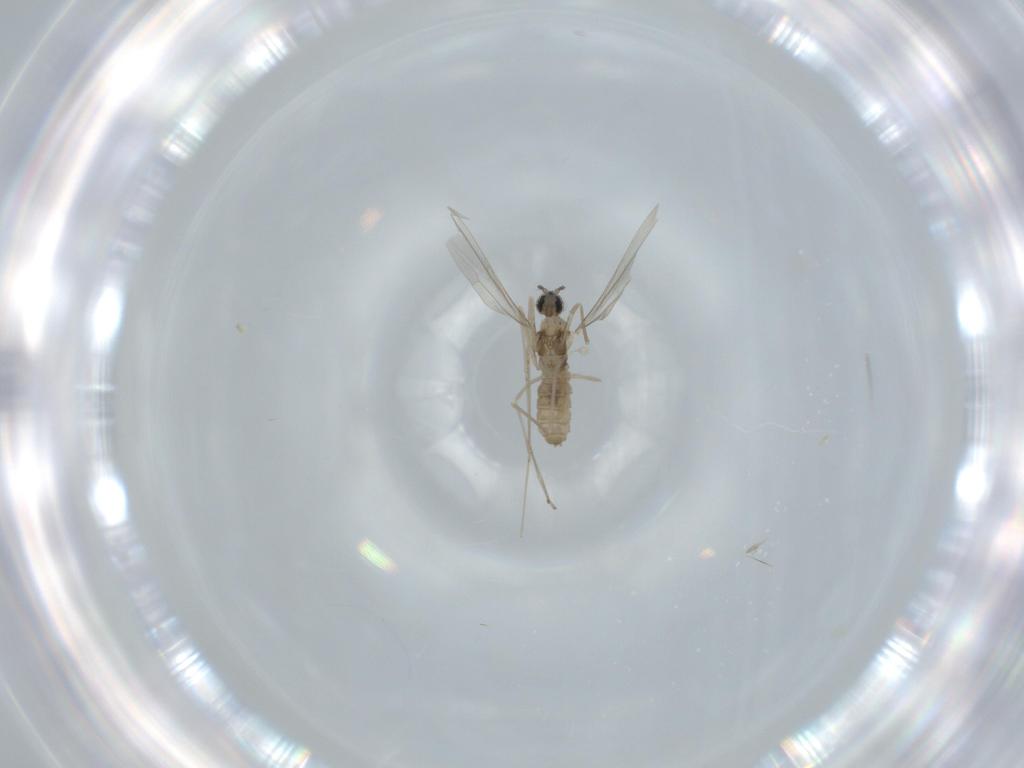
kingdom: Animalia
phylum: Arthropoda
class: Insecta
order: Diptera
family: Cecidomyiidae
